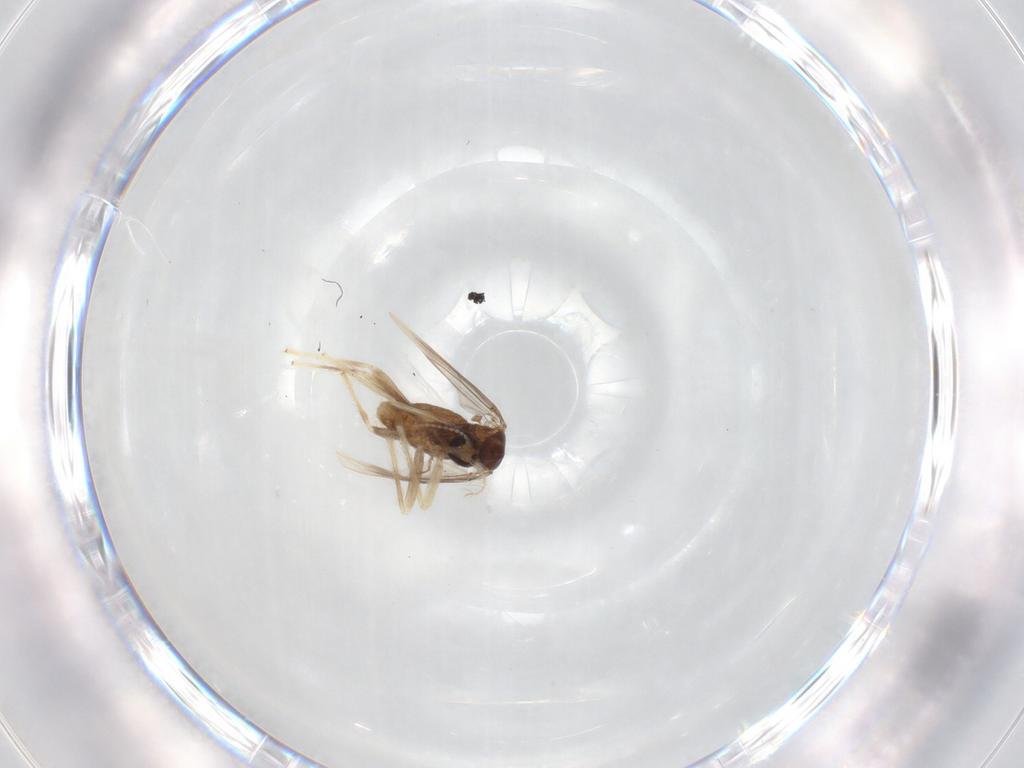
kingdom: Animalia
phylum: Arthropoda
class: Insecta
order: Diptera
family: Chironomidae
